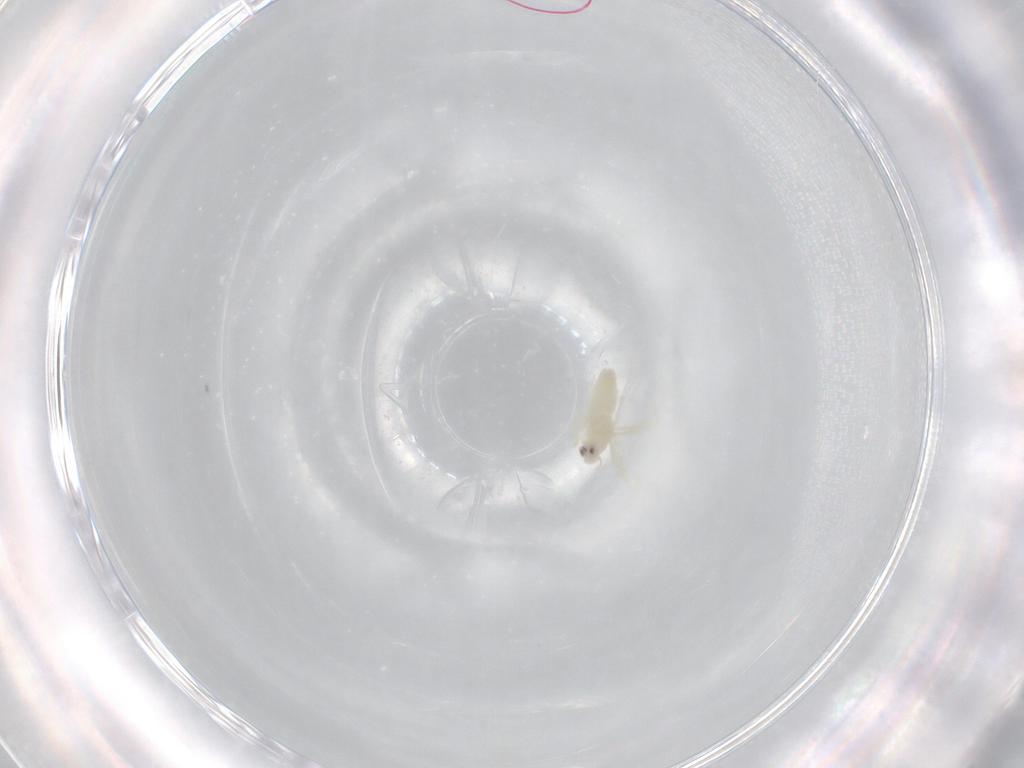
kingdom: Animalia
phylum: Arthropoda
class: Insecta
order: Hemiptera
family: Aleyrodidae
